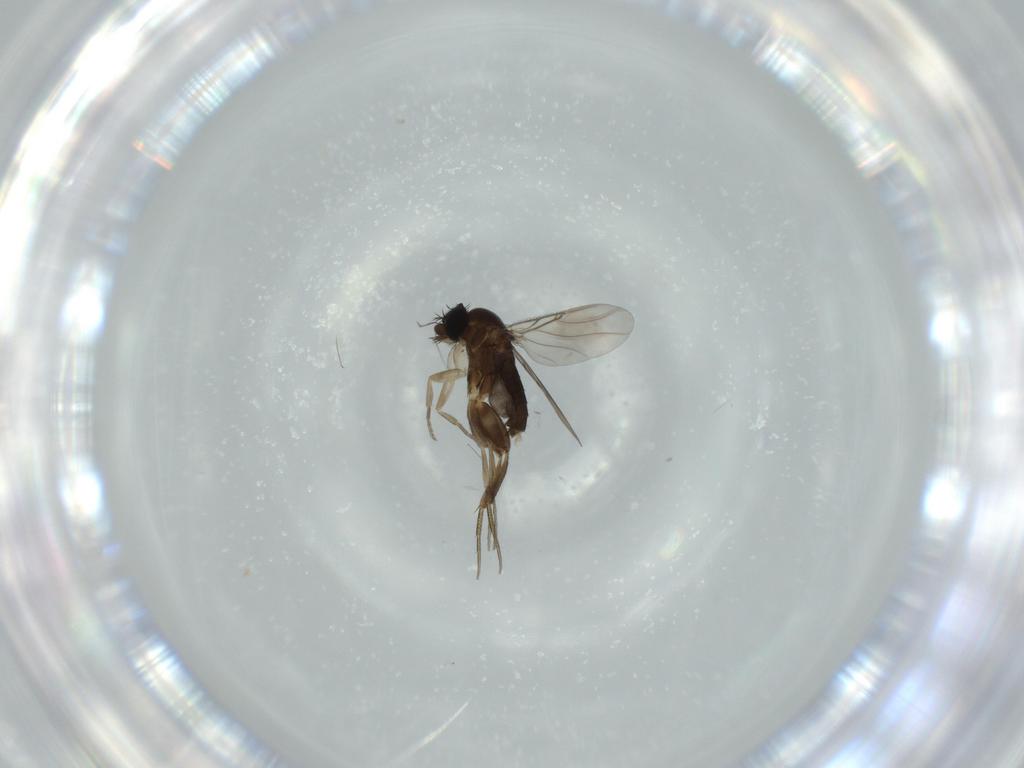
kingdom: Animalia
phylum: Arthropoda
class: Insecta
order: Diptera
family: Phoridae
